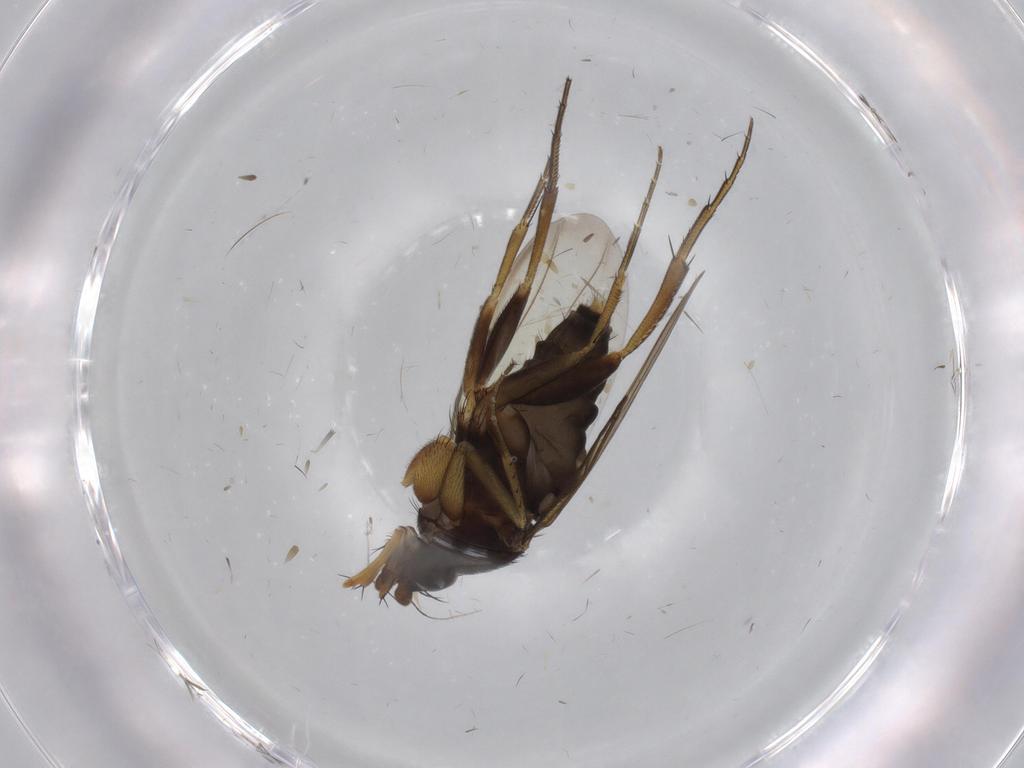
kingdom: Animalia
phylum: Arthropoda
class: Insecta
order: Diptera
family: Phoridae
